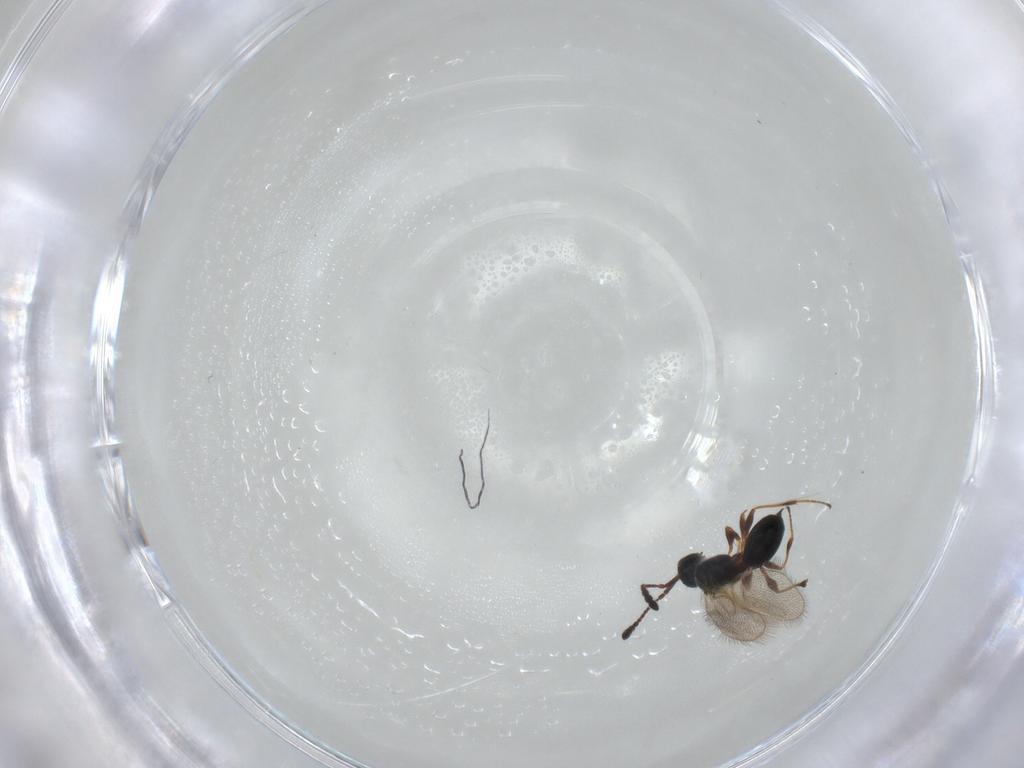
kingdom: Animalia
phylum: Arthropoda
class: Insecta
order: Hymenoptera
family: Diapriidae
